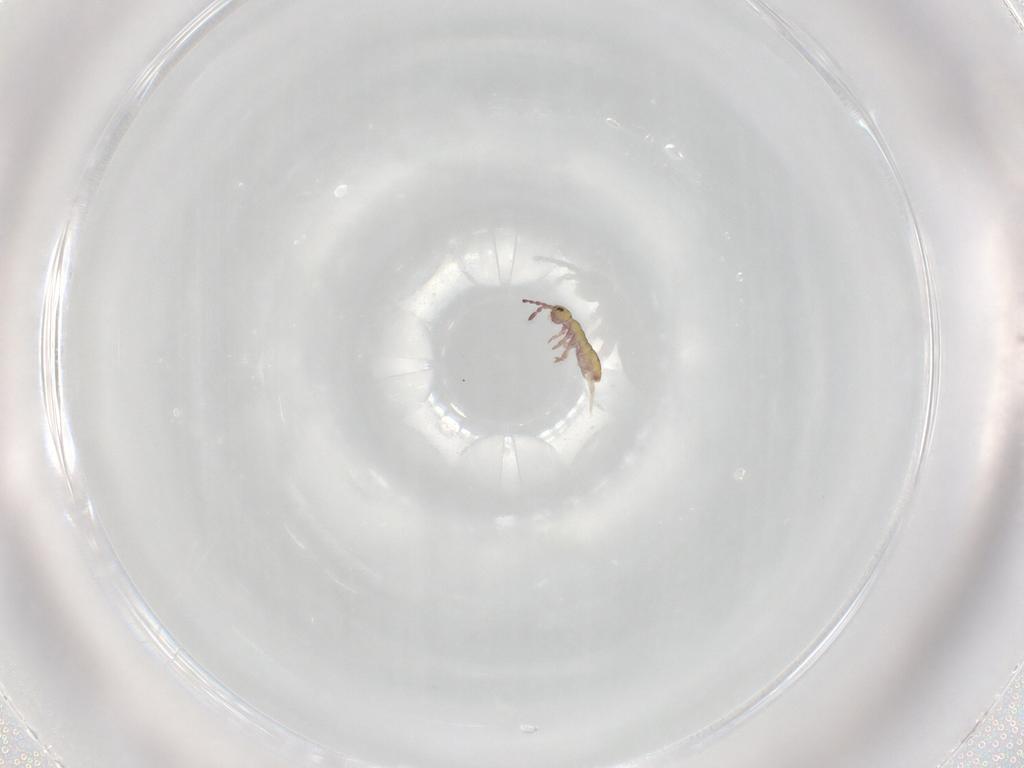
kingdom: Animalia
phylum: Arthropoda
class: Collembola
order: Entomobryomorpha
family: Isotomidae
